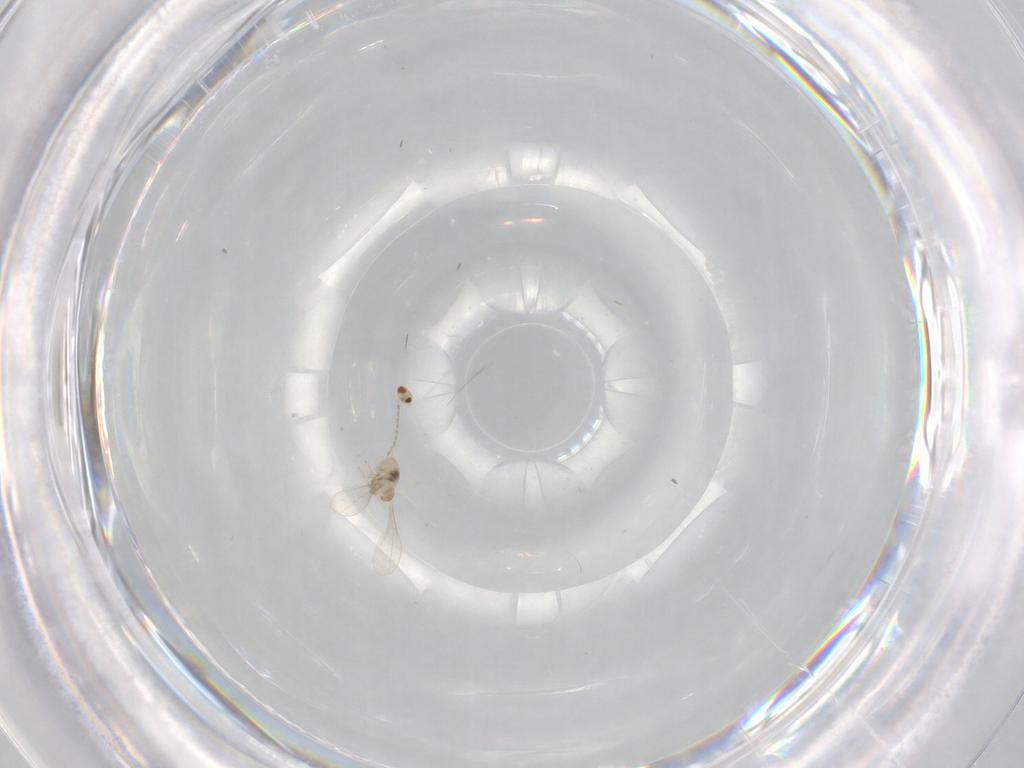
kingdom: Animalia
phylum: Arthropoda
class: Insecta
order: Diptera
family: Cecidomyiidae
